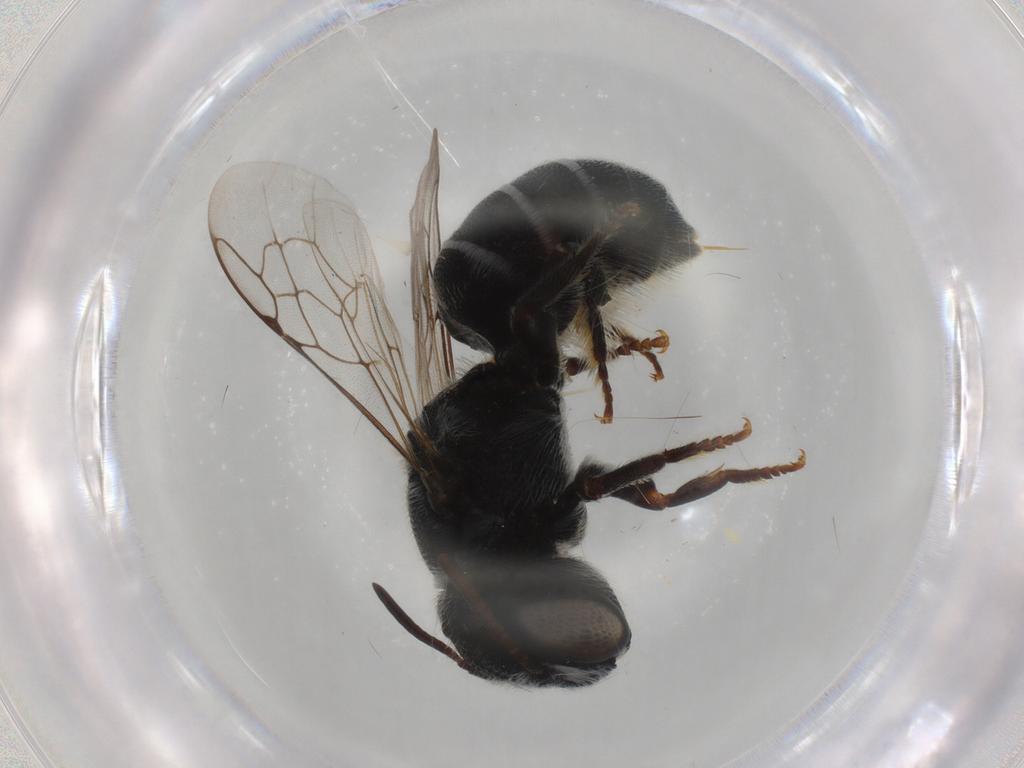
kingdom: Animalia
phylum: Arthropoda
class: Insecta
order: Hymenoptera
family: Megachilidae
